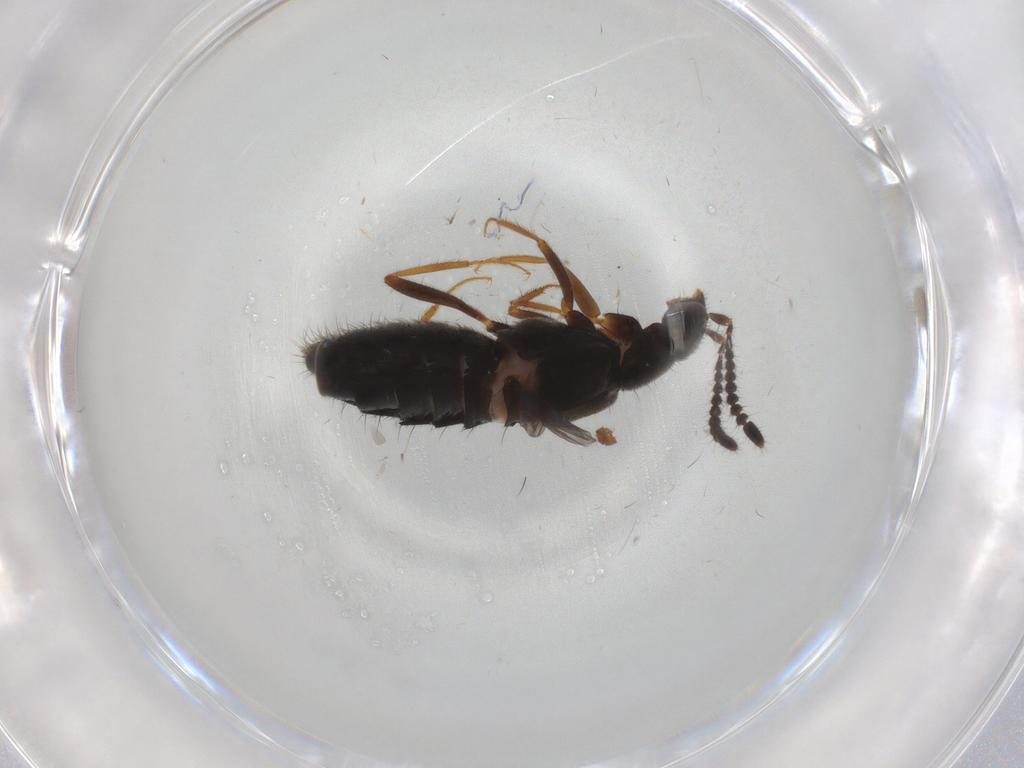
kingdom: Animalia
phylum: Arthropoda
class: Insecta
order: Coleoptera
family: Staphylinidae
